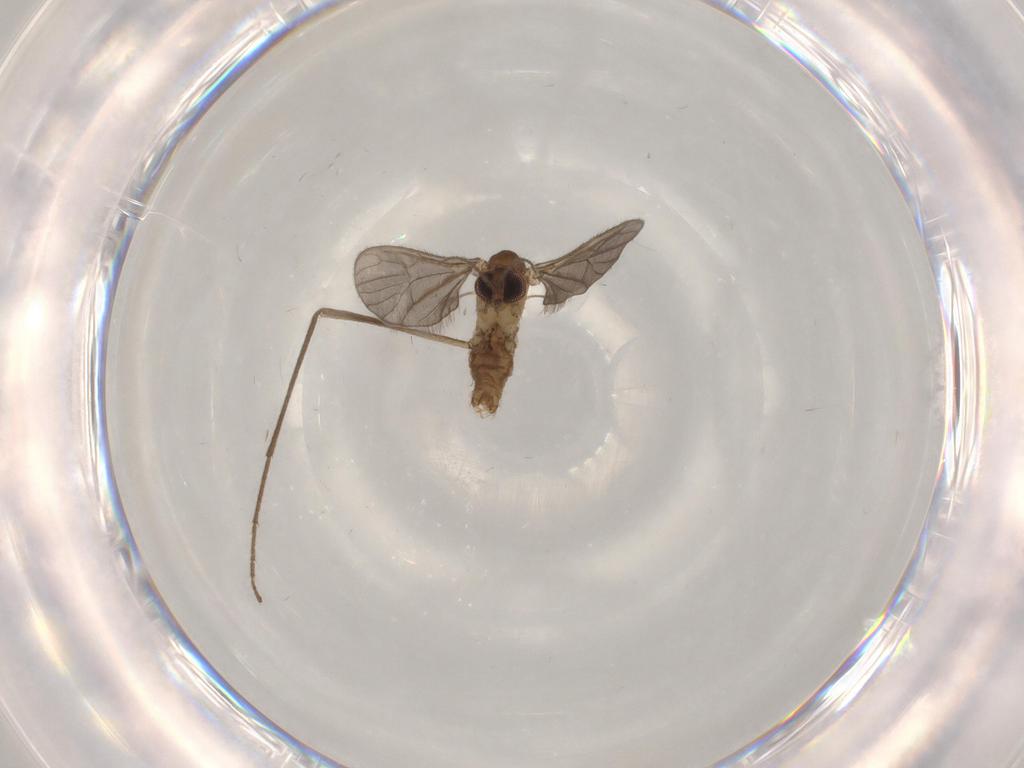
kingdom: Animalia
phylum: Arthropoda
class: Insecta
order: Diptera
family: Limoniidae
